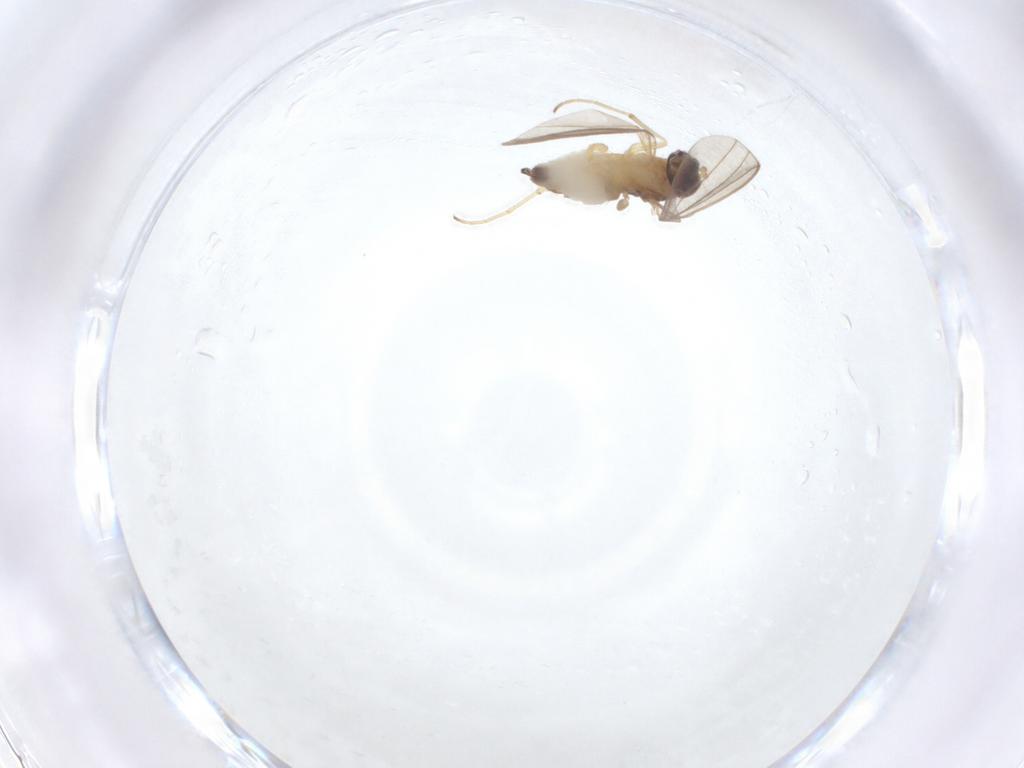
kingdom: Animalia
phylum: Arthropoda
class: Insecta
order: Diptera
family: Dolichopodidae
